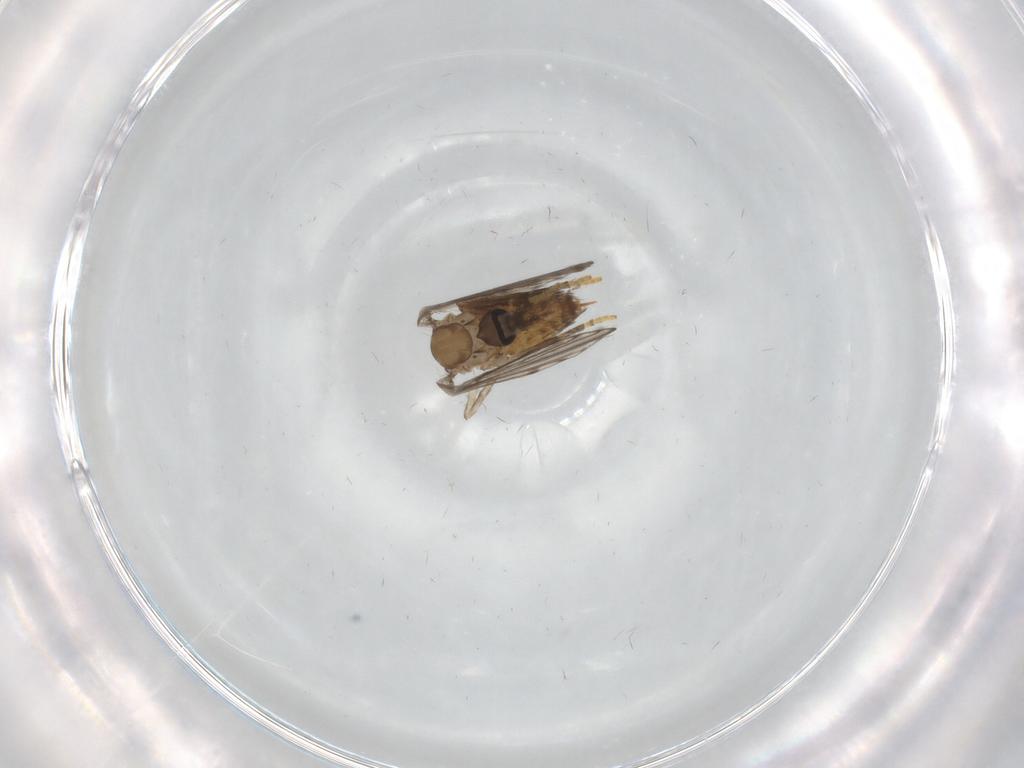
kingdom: Animalia
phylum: Arthropoda
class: Insecta
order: Diptera
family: Psychodidae
